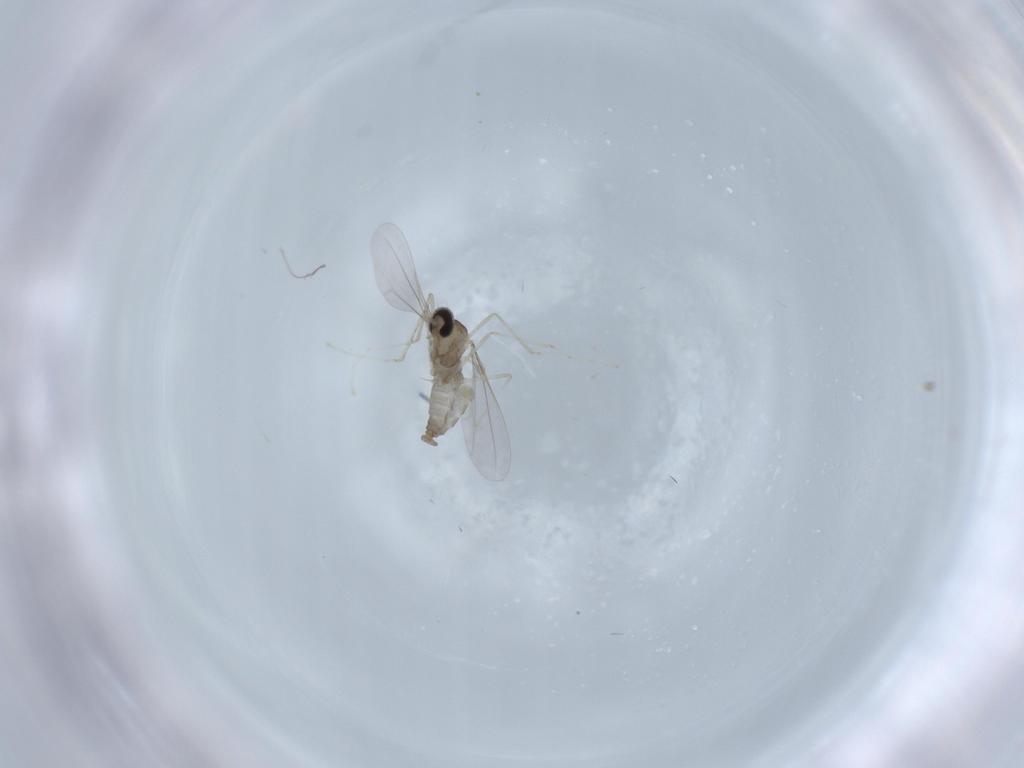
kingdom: Animalia
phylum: Arthropoda
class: Insecta
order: Diptera
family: Cecidomyiidae
